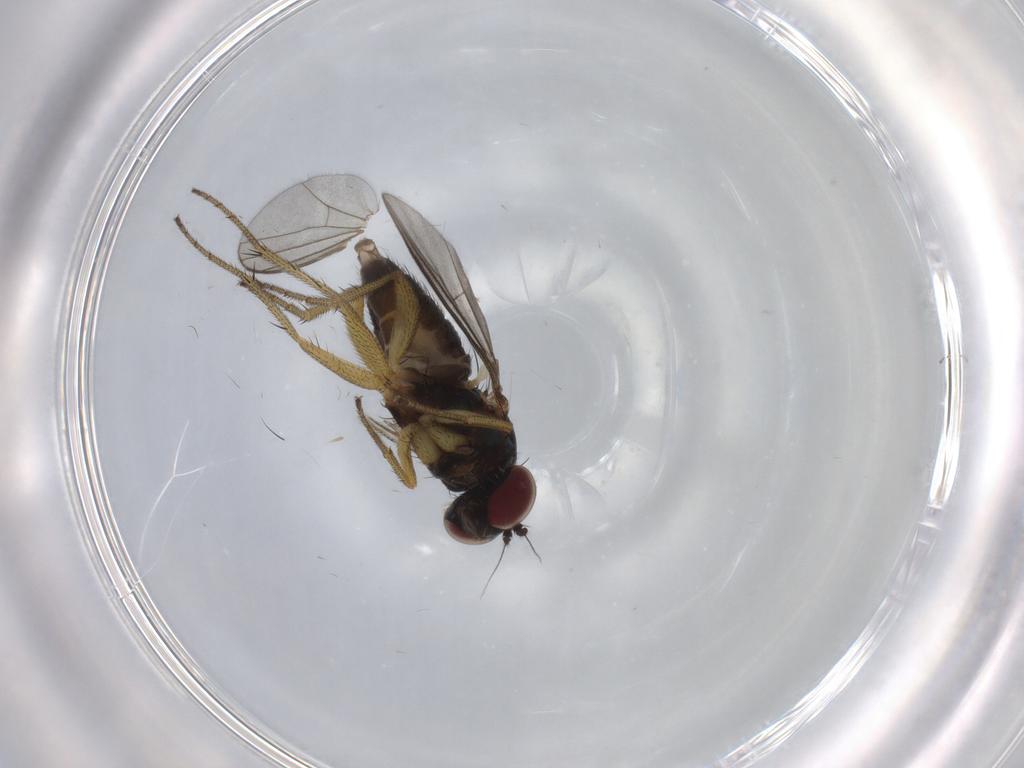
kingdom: Animalia
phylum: Arthropoda
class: Insecta
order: Diptera
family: Dolichopodidae
